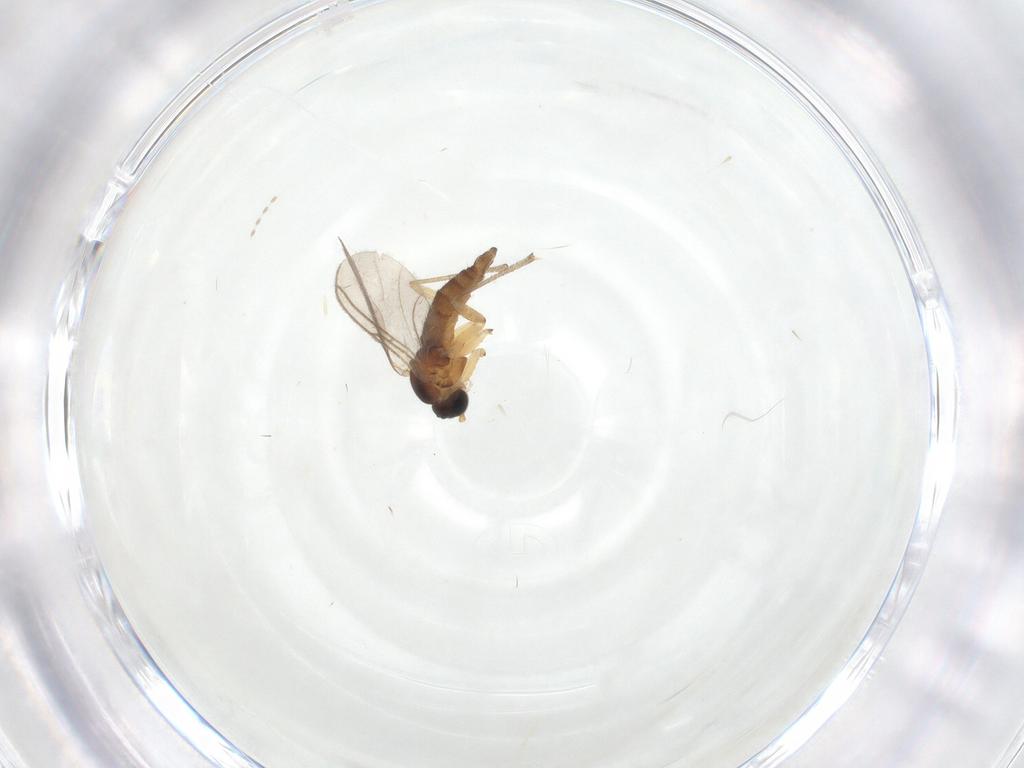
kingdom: Animalia
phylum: Arthropoda
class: Insecta
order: Diptera
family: Sciaridae
